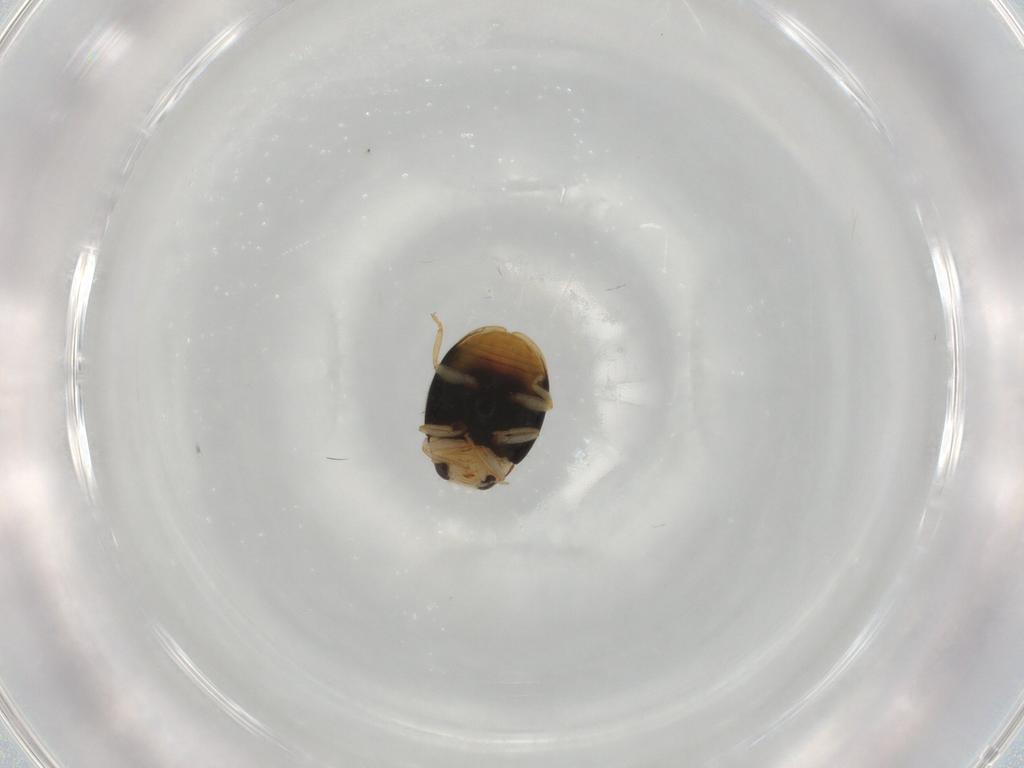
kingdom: Animalia
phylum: Arthropoda
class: Insecta
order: Coleoptera
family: Coccinellidae
